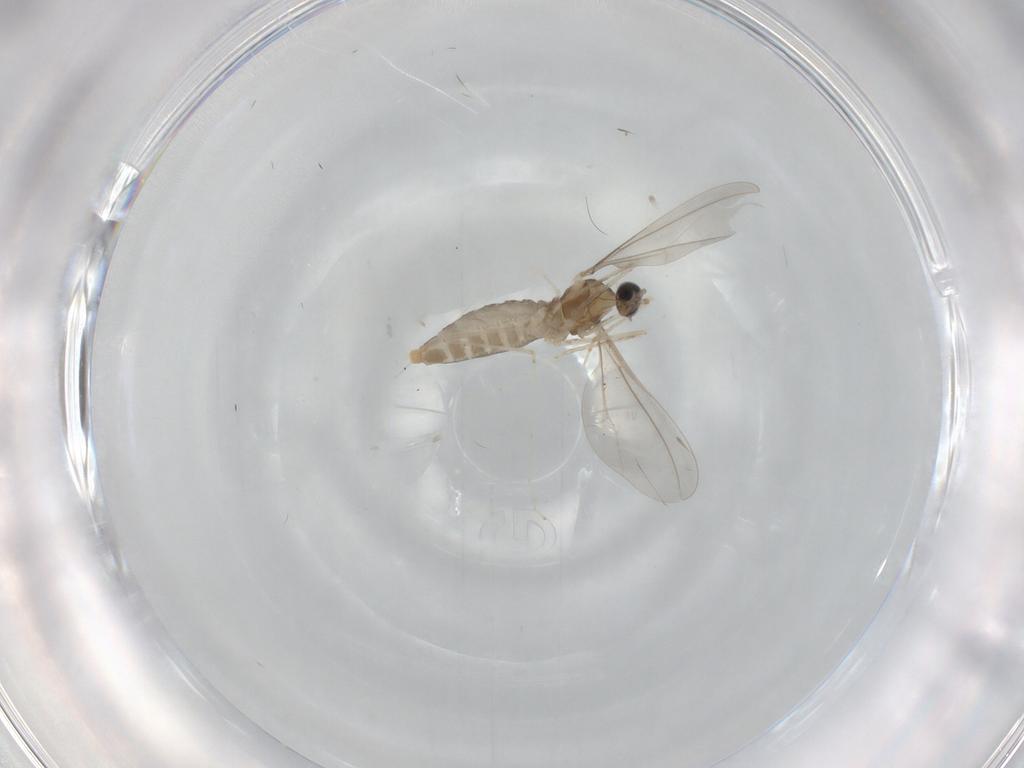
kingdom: Animalia
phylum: Arthropoda
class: Insecta
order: Diptera
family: Cecidomyiidae
